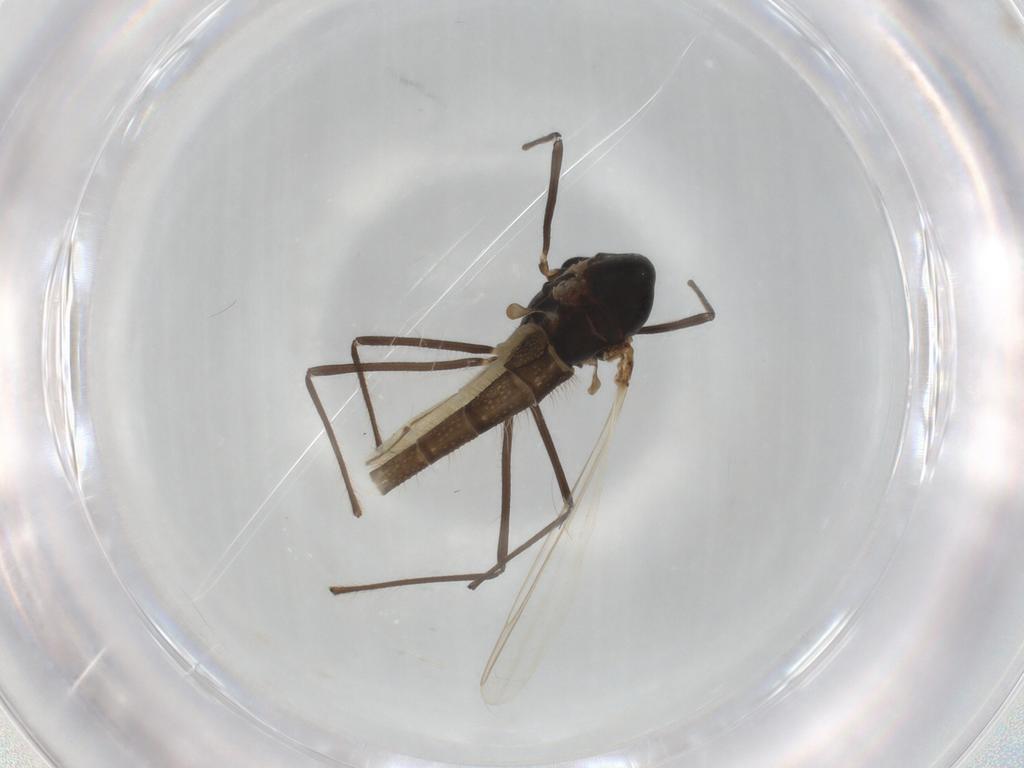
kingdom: Animalia
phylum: Arthropoda
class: Insecta
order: Diptera
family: Chironomidae
